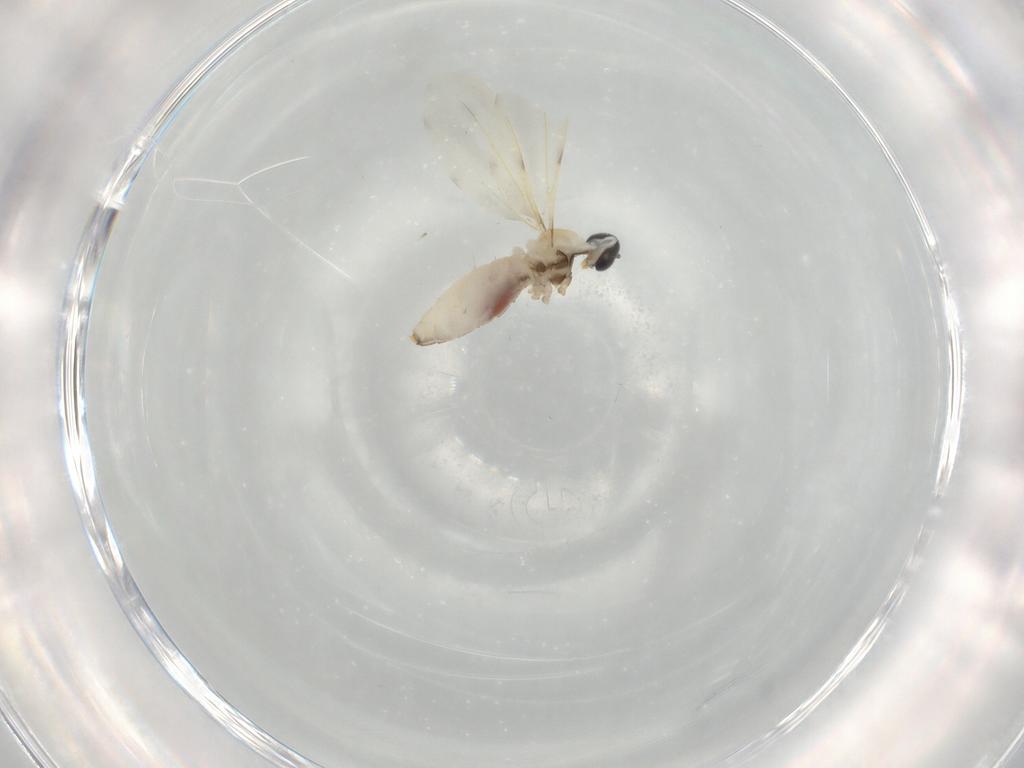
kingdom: Animalia
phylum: Arthropoda
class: Insecta
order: Diptera
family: Cecidomyiidae
